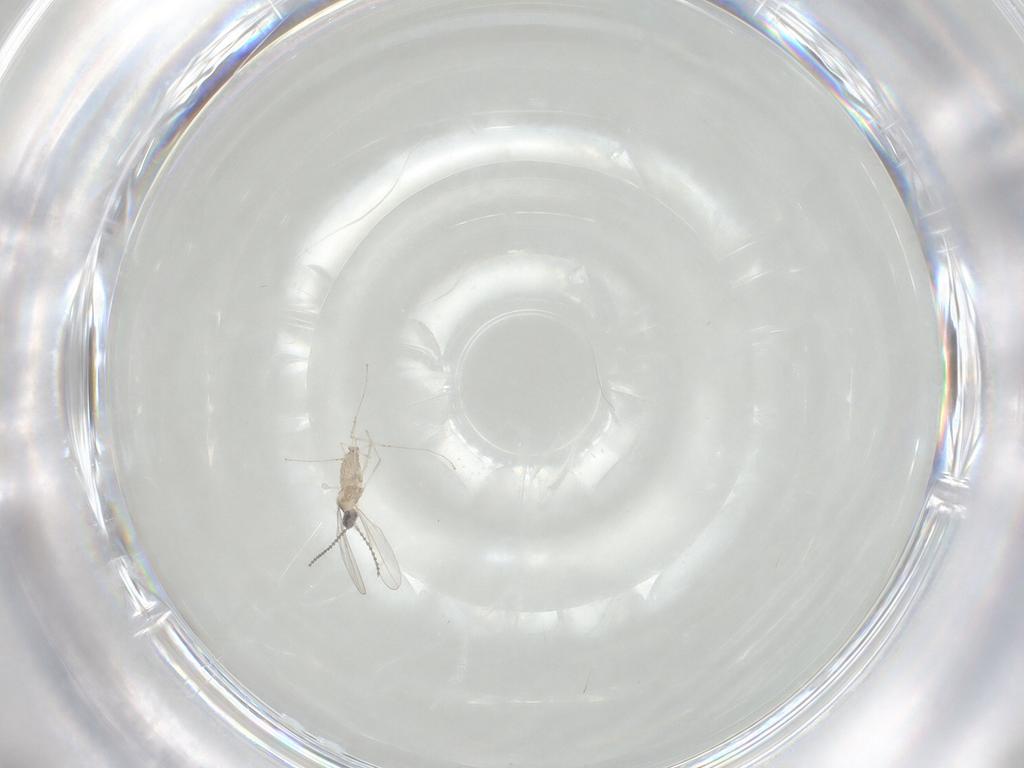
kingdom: Animalia
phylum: Arthropoda
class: Insecta
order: Diptera
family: Cecidomyiidae
